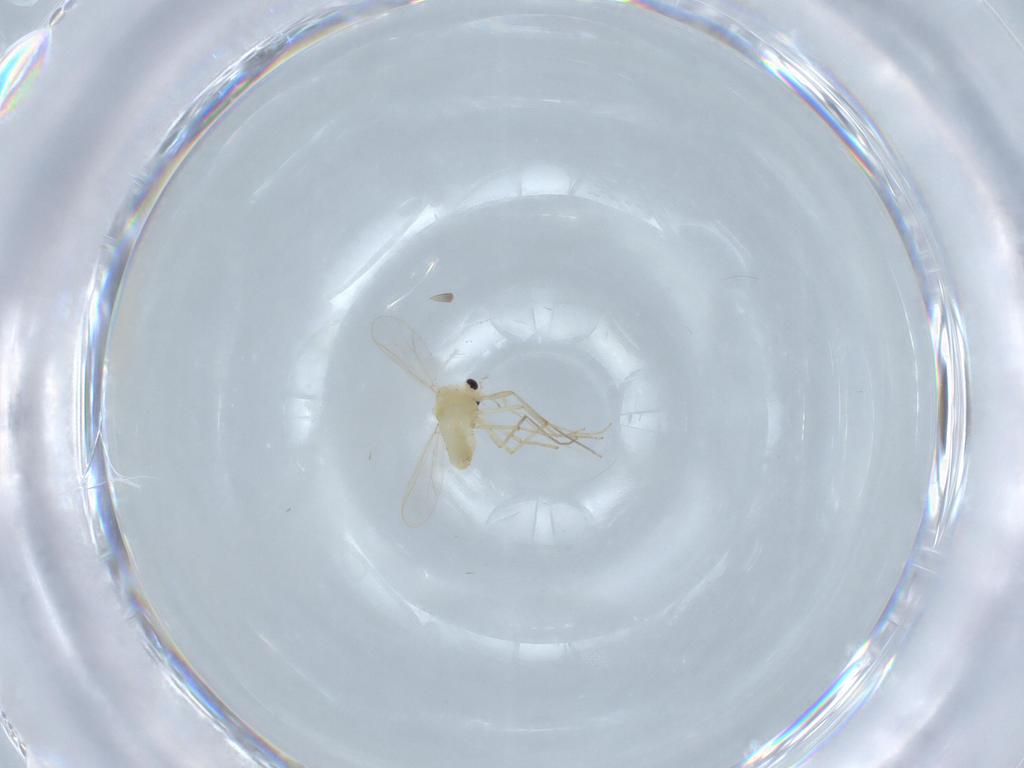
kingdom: Animalia
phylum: Arthropoda
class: Insecta
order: Diptera
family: Chironomidae
